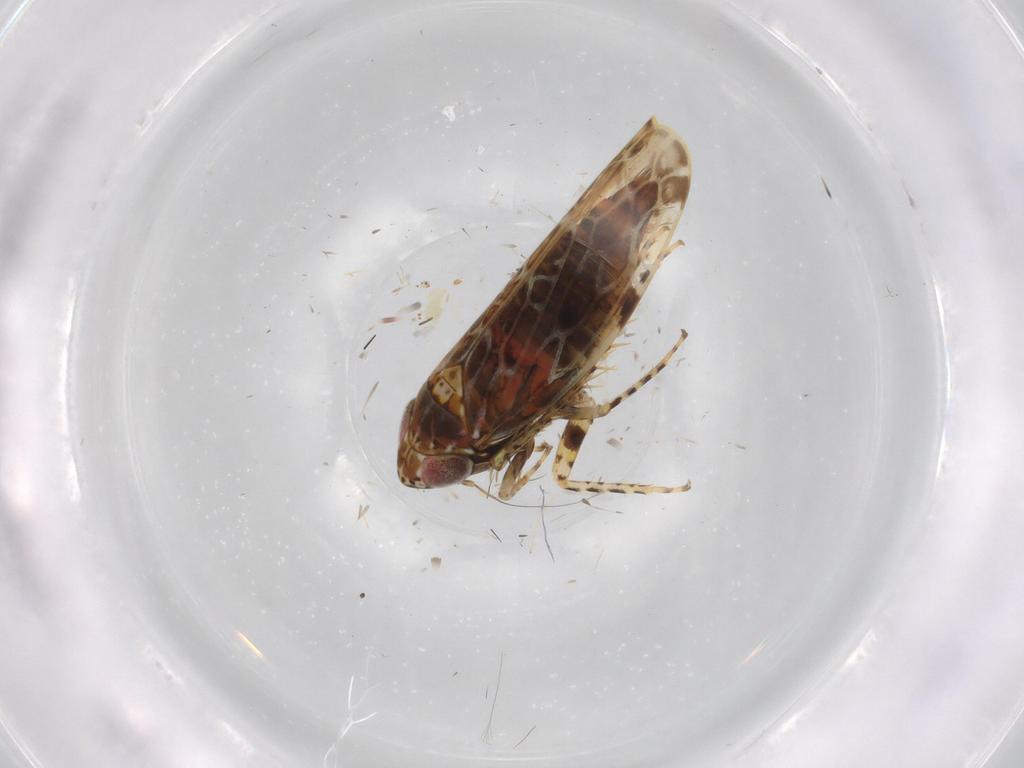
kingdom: Animalia
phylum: Arthropoda
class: Insecta
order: Hemiptera
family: Cicadellidae
